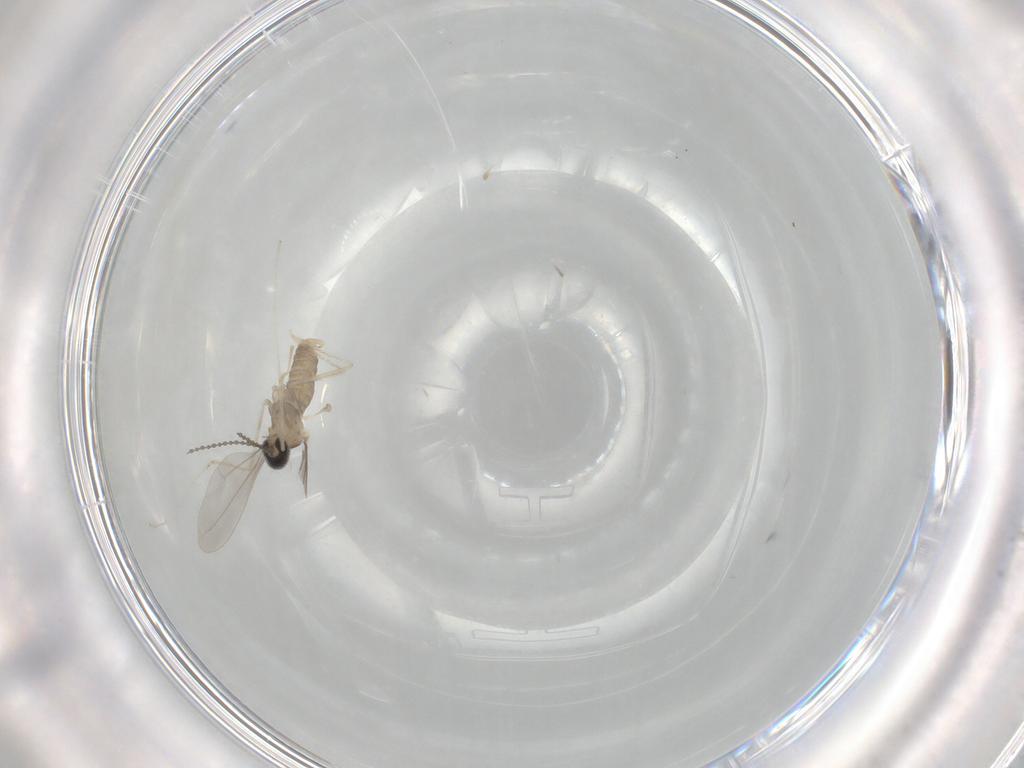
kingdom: Animalia
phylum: Arthropoda
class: Insecta
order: Diptera
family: Cecidomyiidae
